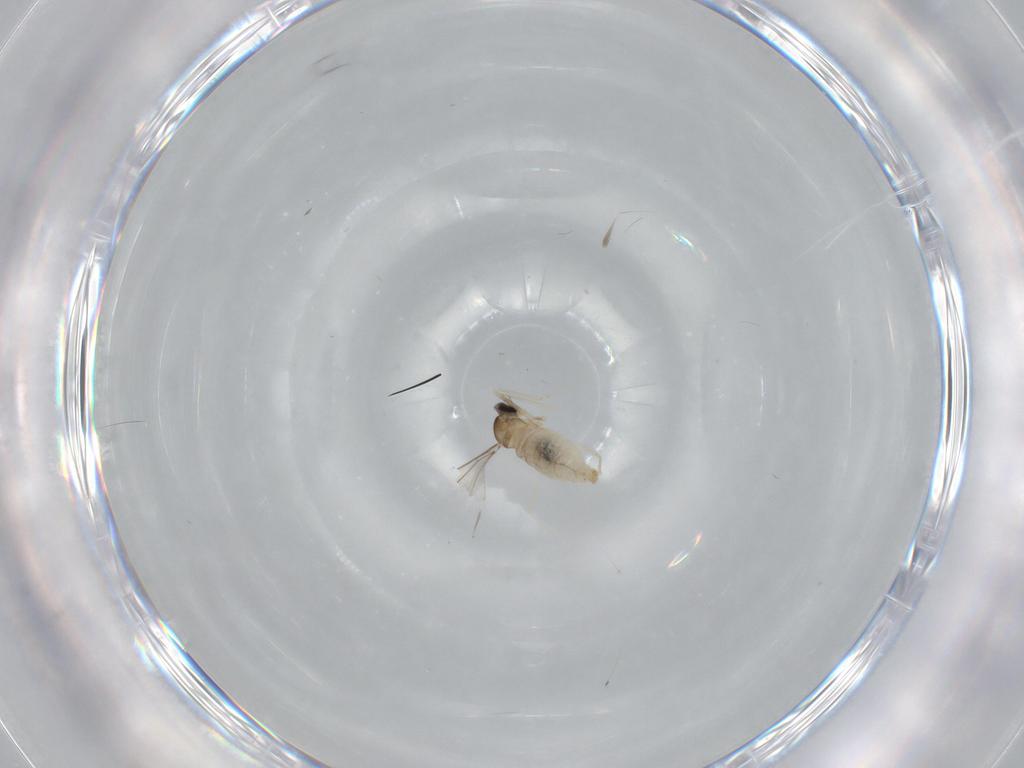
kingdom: Animalia
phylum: Arthropoda
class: Insecta
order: Diptera
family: Cecidomyiidae
